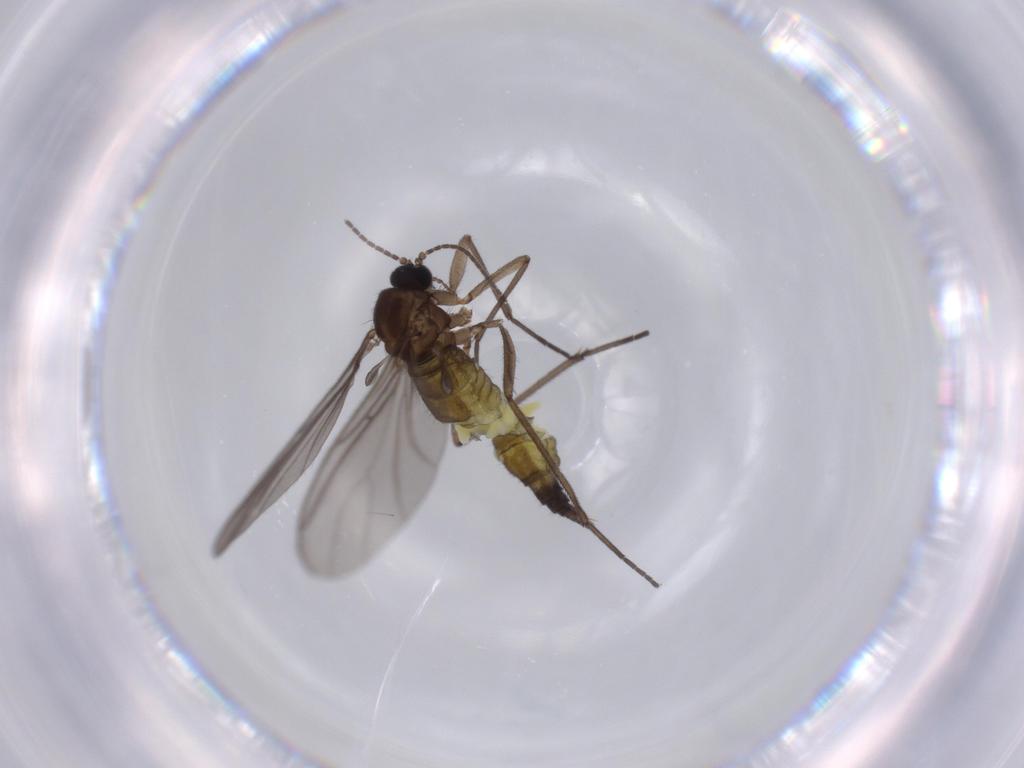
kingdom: Animalia
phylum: Arthropoda
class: Insecta
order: Diptera
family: Sciaridae
